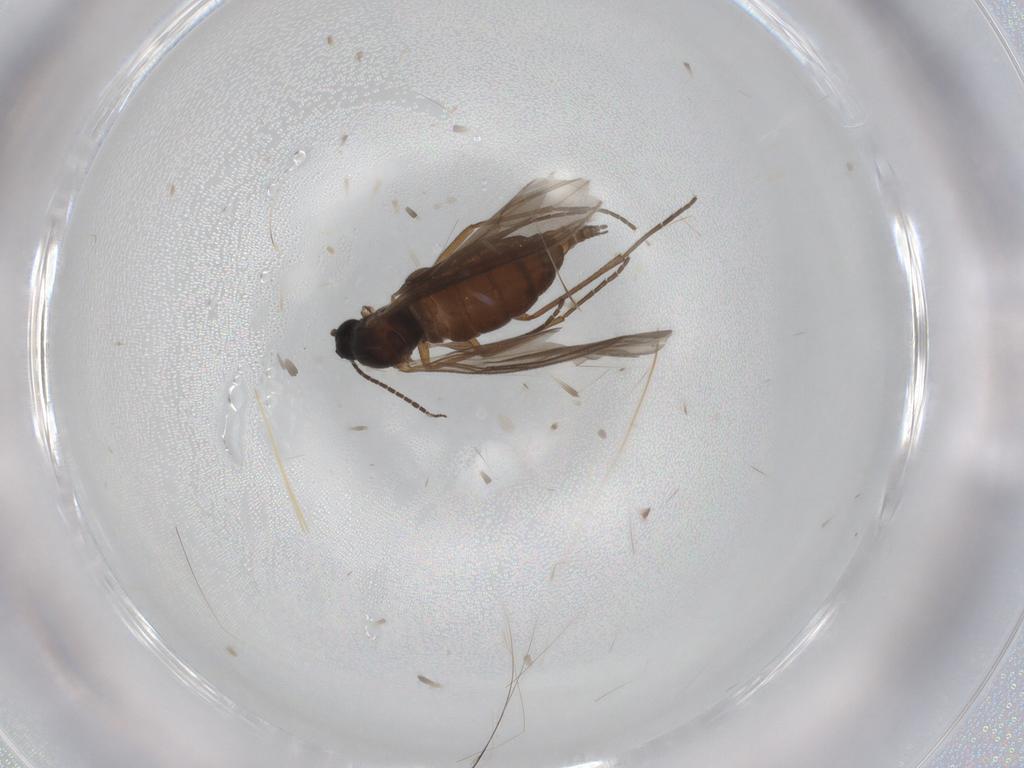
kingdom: Animalia
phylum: Arthropoda
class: Insecta
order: Diptera
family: Sciaridae
